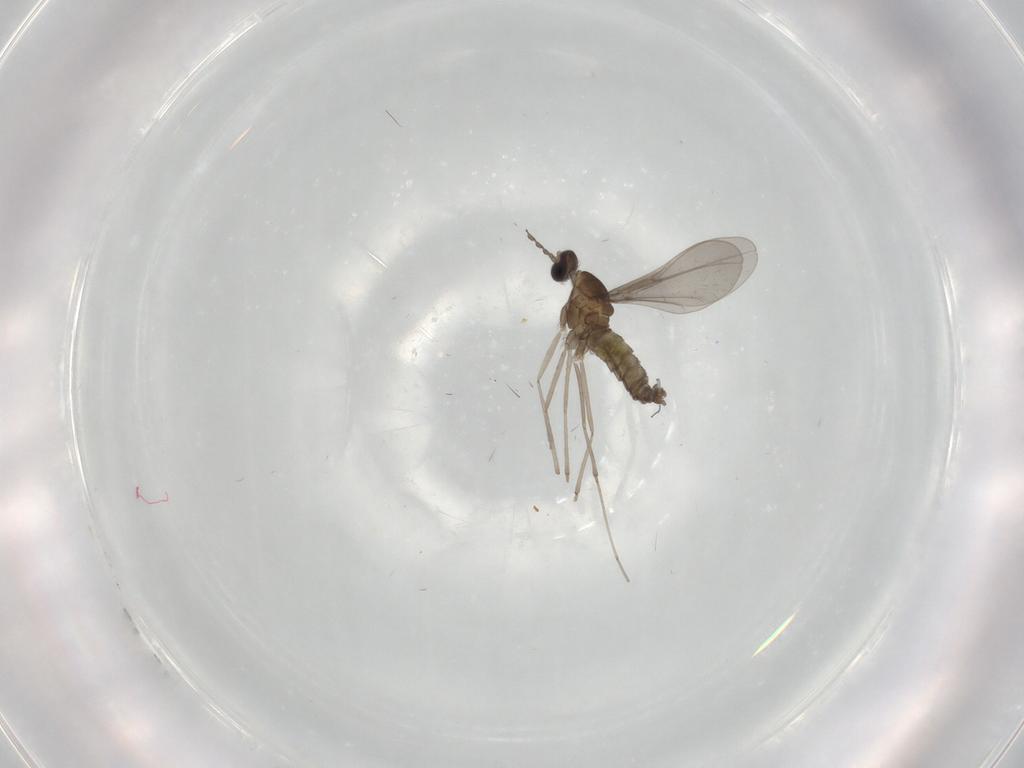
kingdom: Animalia
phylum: Arthropoda
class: Insecta
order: Diptera
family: Cecidomyiidae
